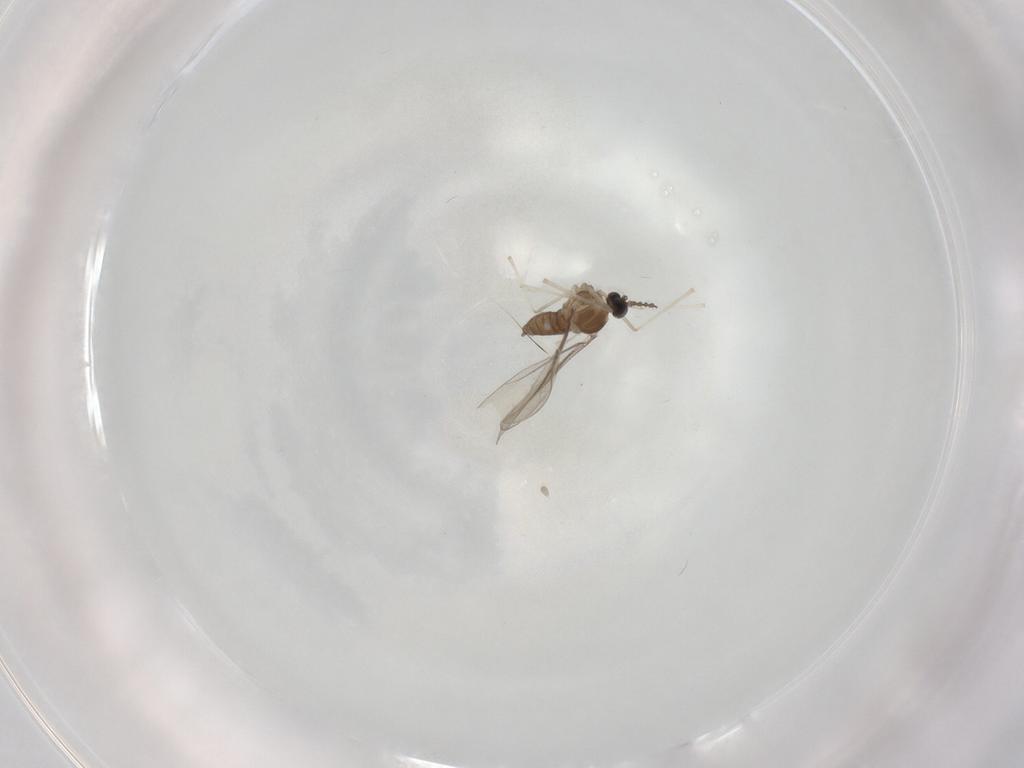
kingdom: Animalia
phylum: Arthropoda
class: Insecta
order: Diptera
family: Cecidomyiidae
